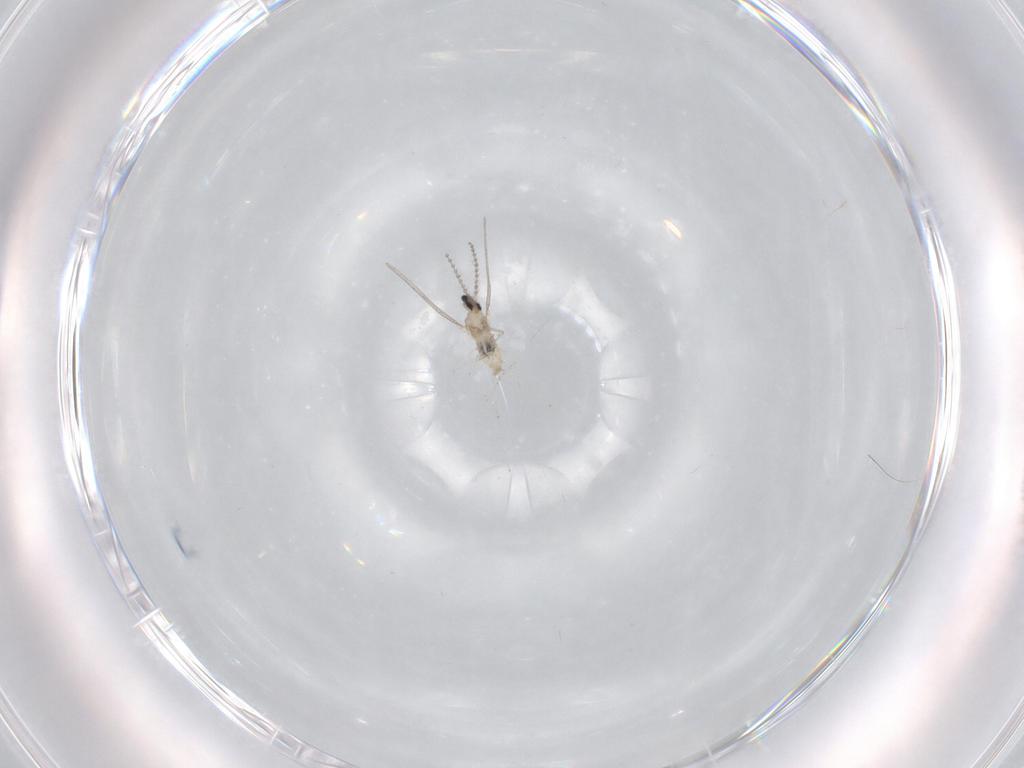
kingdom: Animalia
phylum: Arthropoda
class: Insecta
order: Diptera
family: Cecidomyiidae
